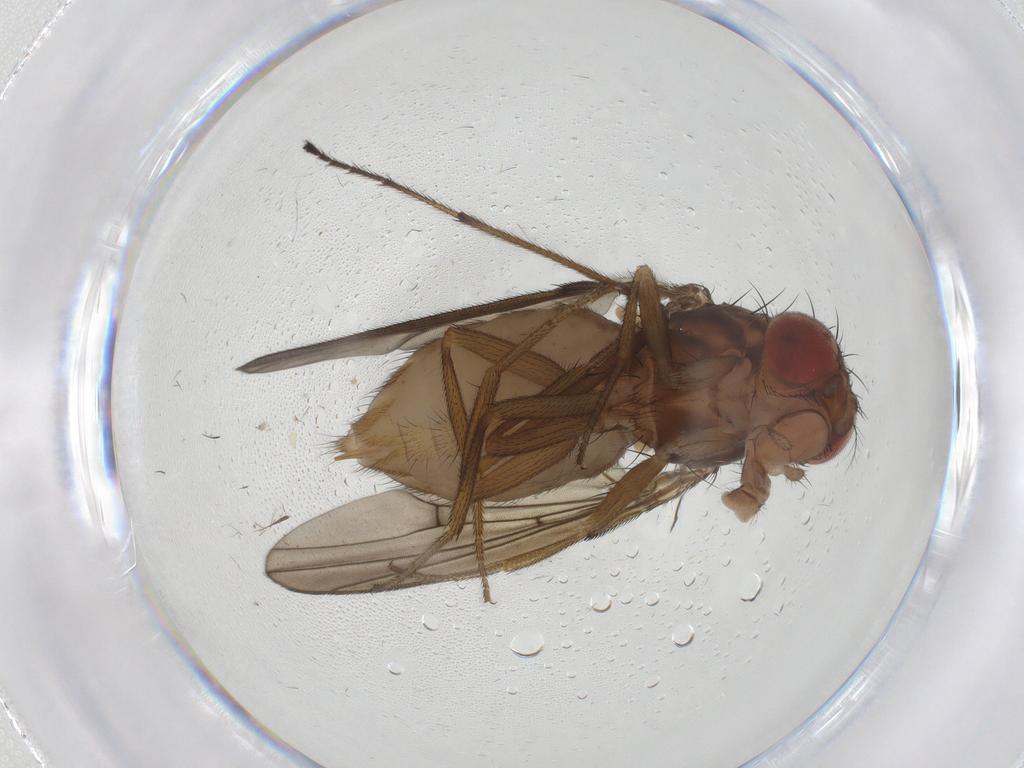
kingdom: Animalia
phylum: Arthropoda
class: Insecta
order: Diptera
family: Drosophilidae
